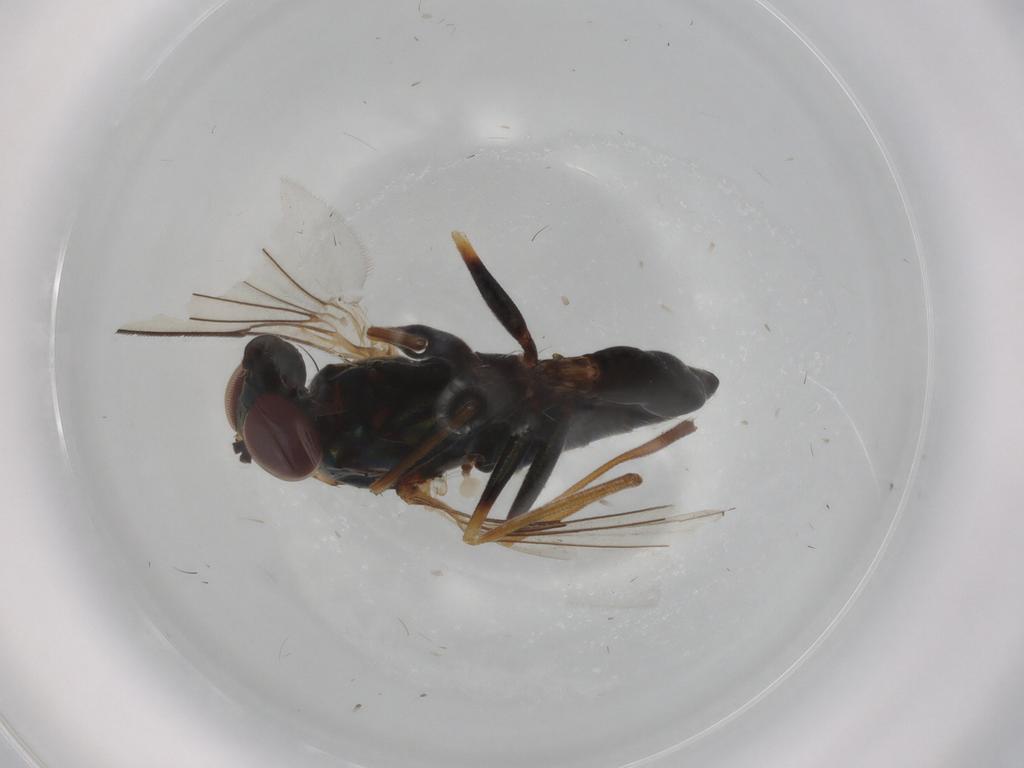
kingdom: Animalia
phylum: Arthropoda
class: Insecta
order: Diptera
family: Dolichopodidae
